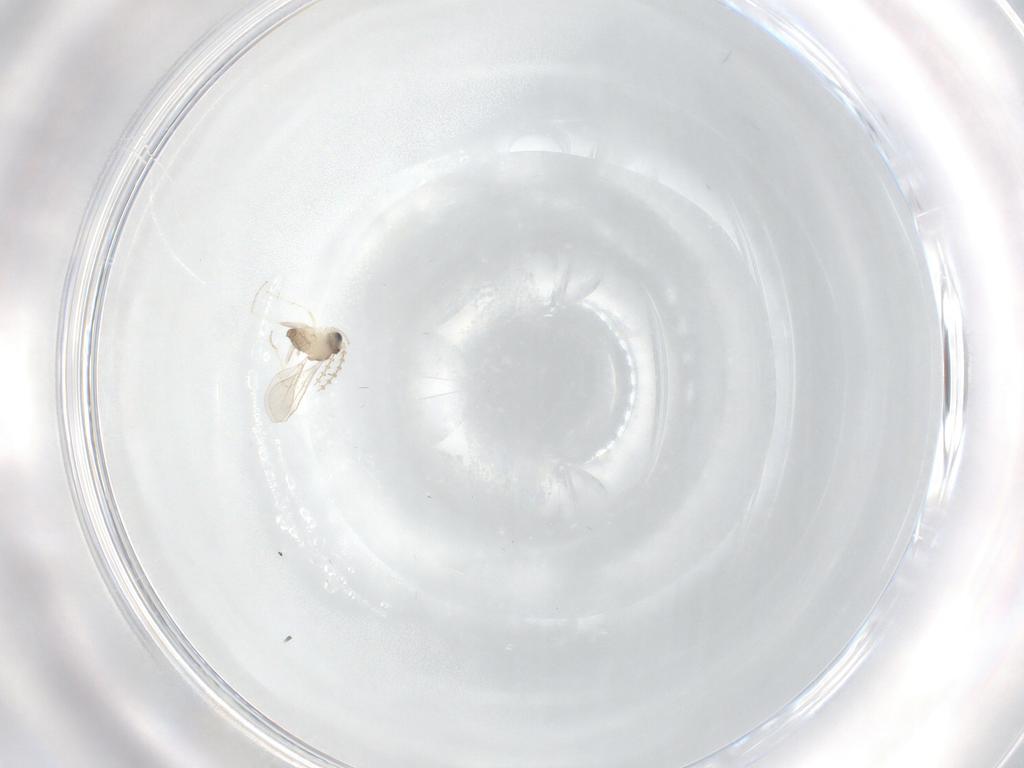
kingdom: Animalia
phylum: Arthropoda
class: Insecta
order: Diptera
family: Cecidomyiidae
